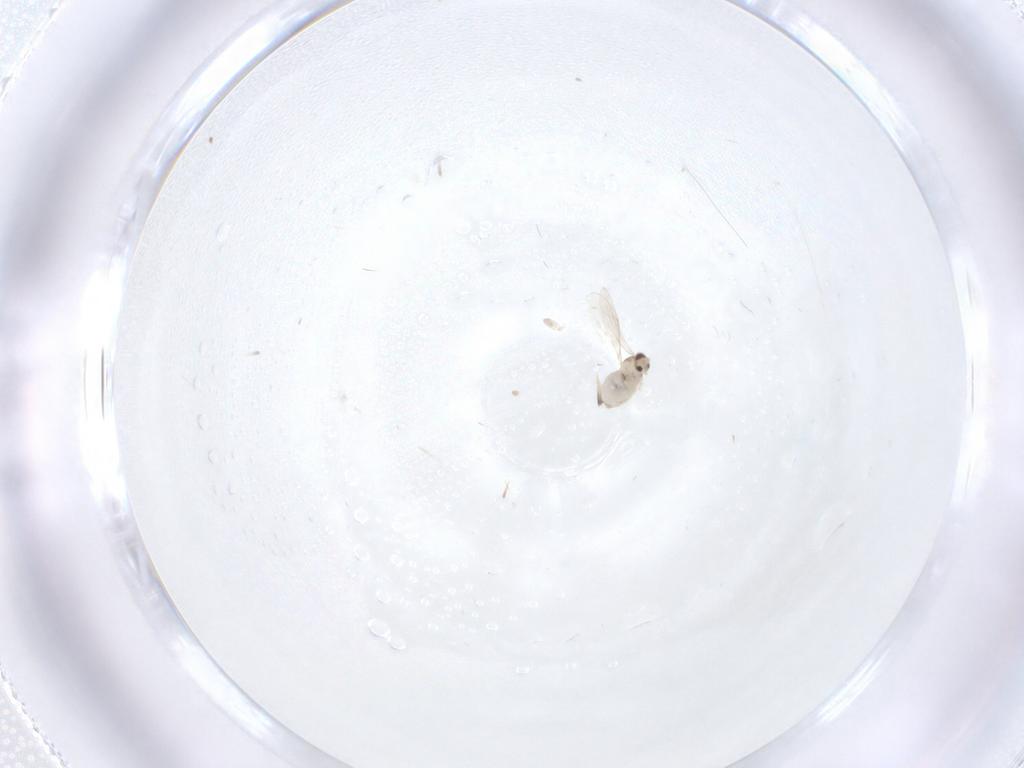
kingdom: Animalia
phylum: Arthropoda
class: Insecta
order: Diptera
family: Cecidomyiidae
